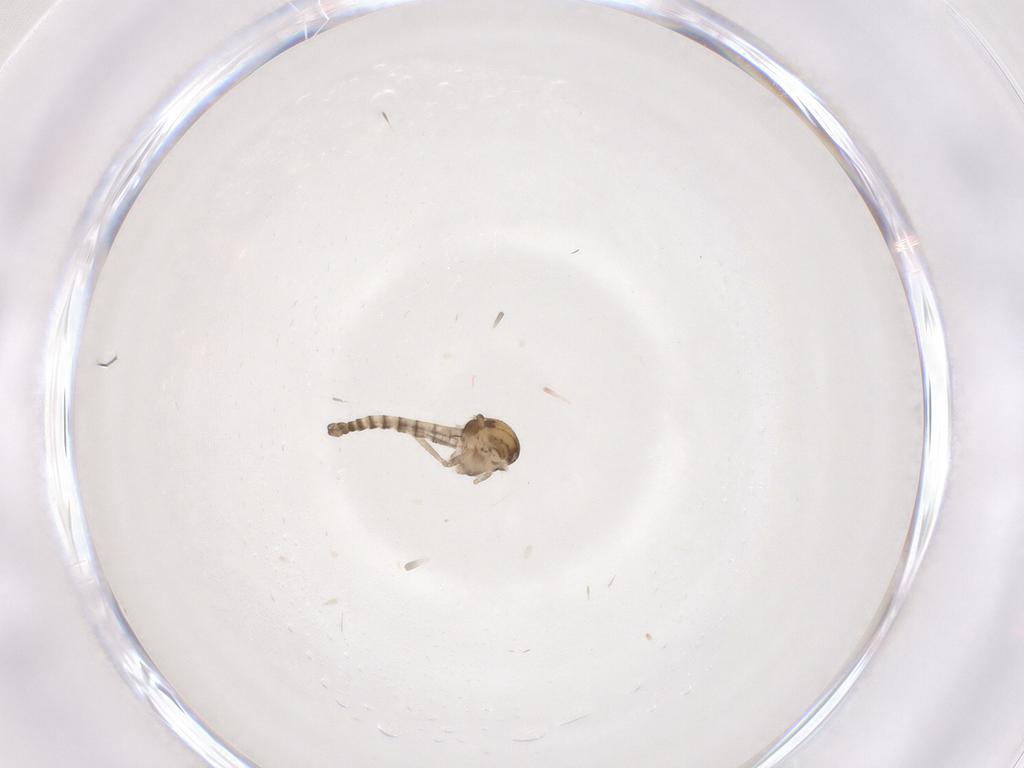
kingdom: Animalia
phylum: Arthropoda
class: Insecta
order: Diptera
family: Ceratopogonidae
